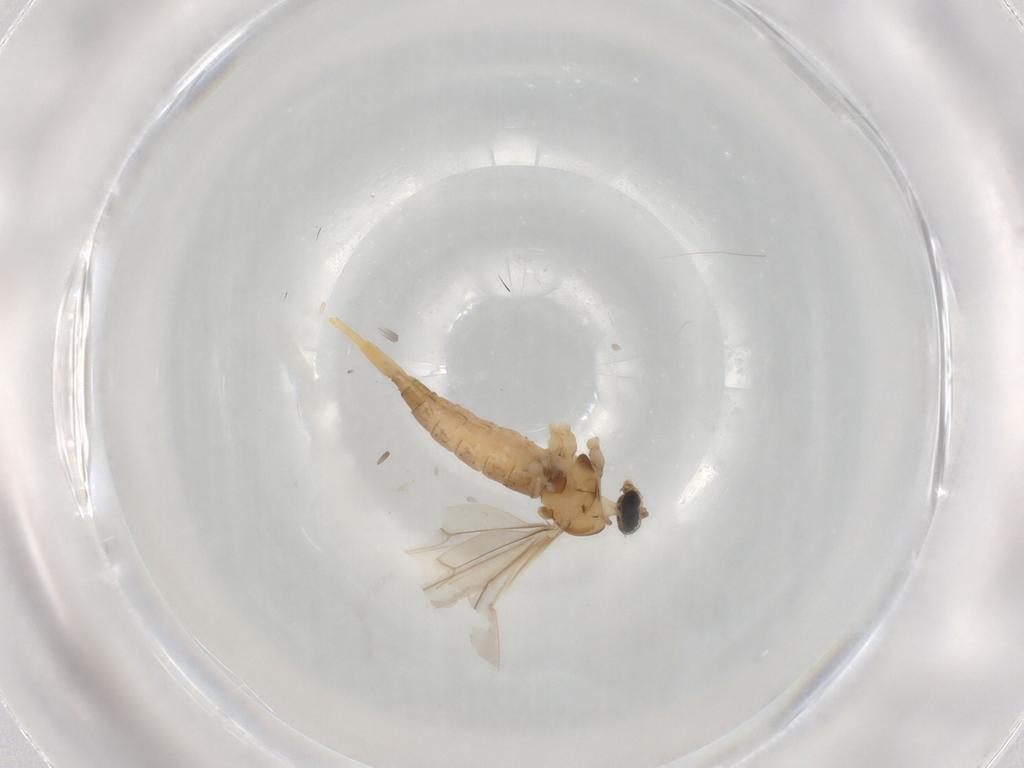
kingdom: Animalia
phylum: Arthropoda
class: Insecta
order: Diptera
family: Cecidomyiidae
